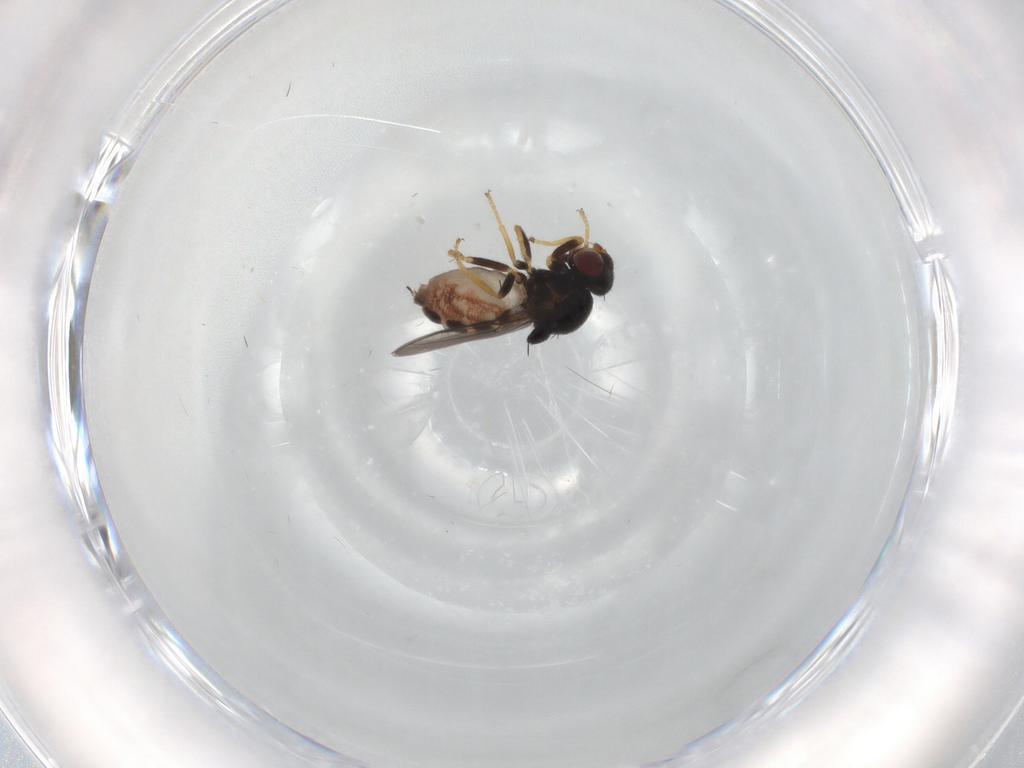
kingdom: Animalia
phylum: Arthropoda
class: Insecta
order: Diptera
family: Chloropidae
